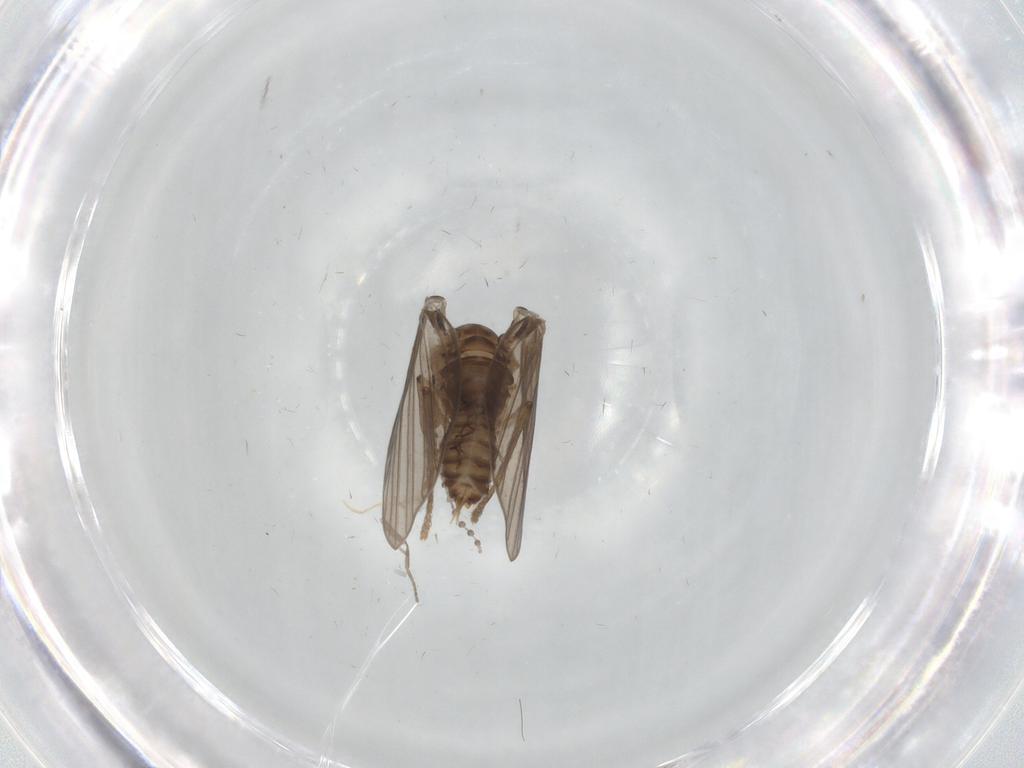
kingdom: Animalia
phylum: Arthropoda
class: Insecta
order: Diptera
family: Psychodidae
